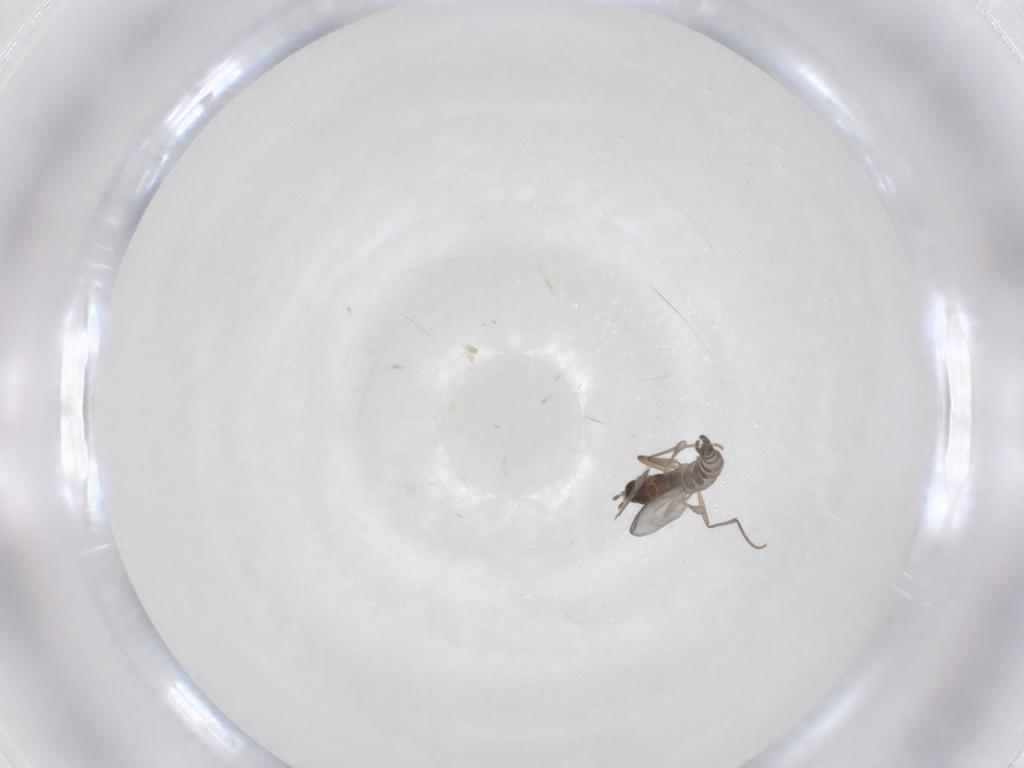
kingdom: Animalia
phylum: Arthropoda
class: Insecta
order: Diptera
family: Sciaridae
